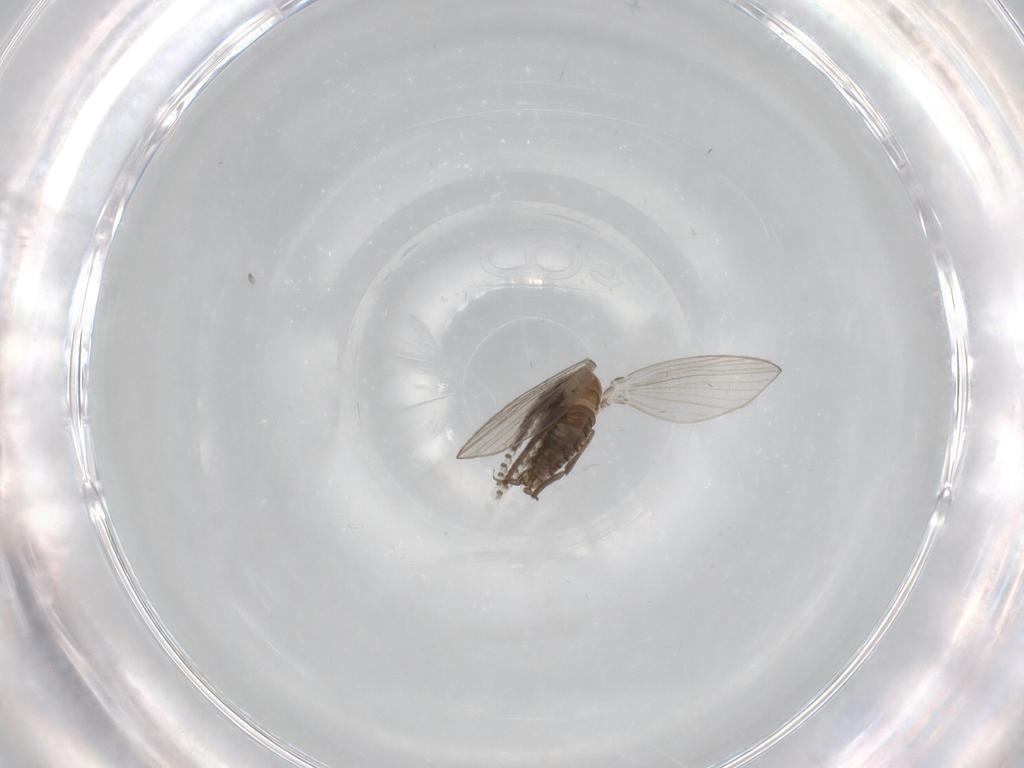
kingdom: Animalia
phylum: Arthropoda
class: Insecta
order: Diptera
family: Psychodidae
